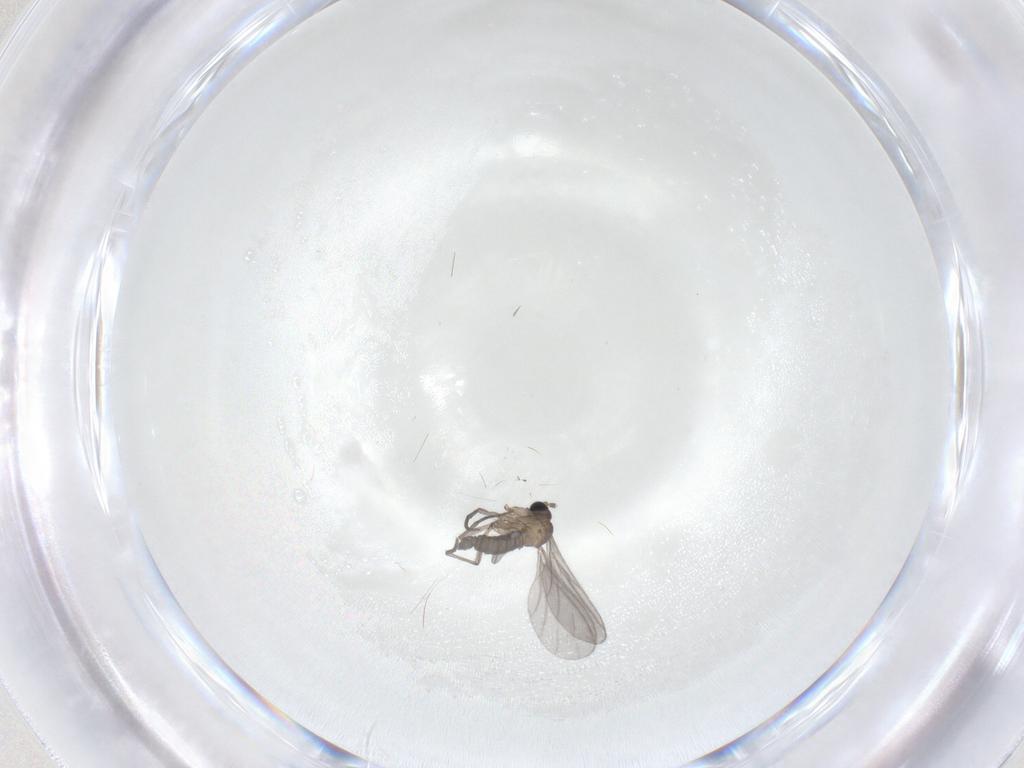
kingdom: Animalia
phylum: Arthropoda
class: Insecta
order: Diptera
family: Sciaridae
